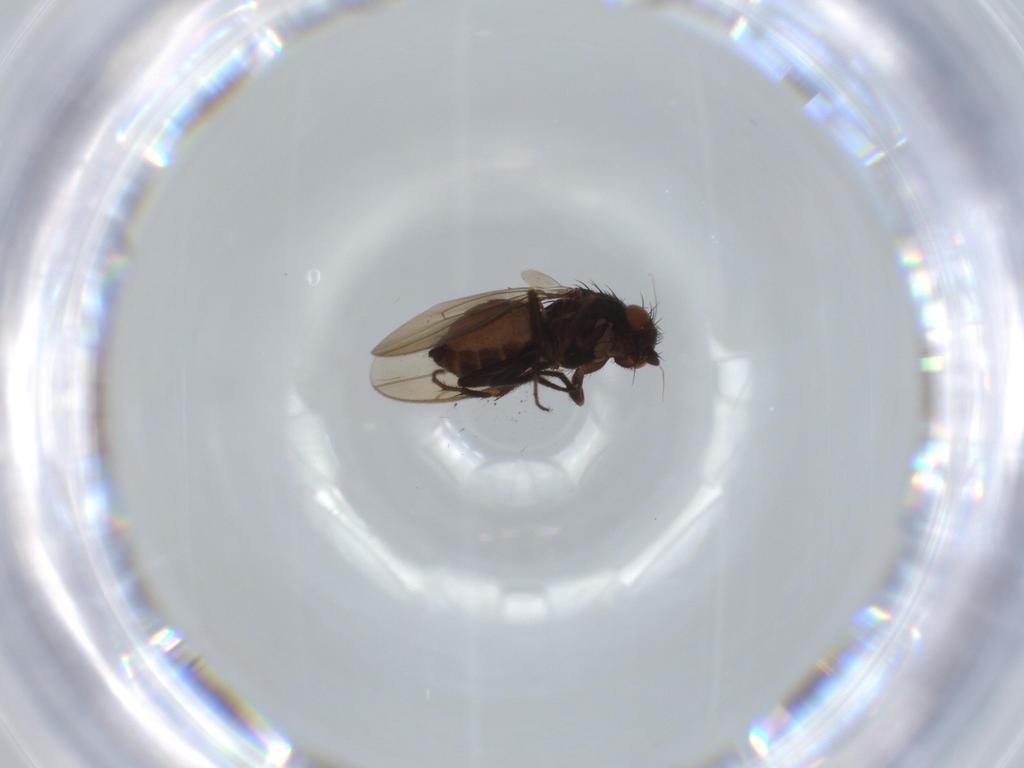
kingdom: Animalia
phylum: Arthropoda
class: Insecta
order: Diptera
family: Sphaeroceridae
